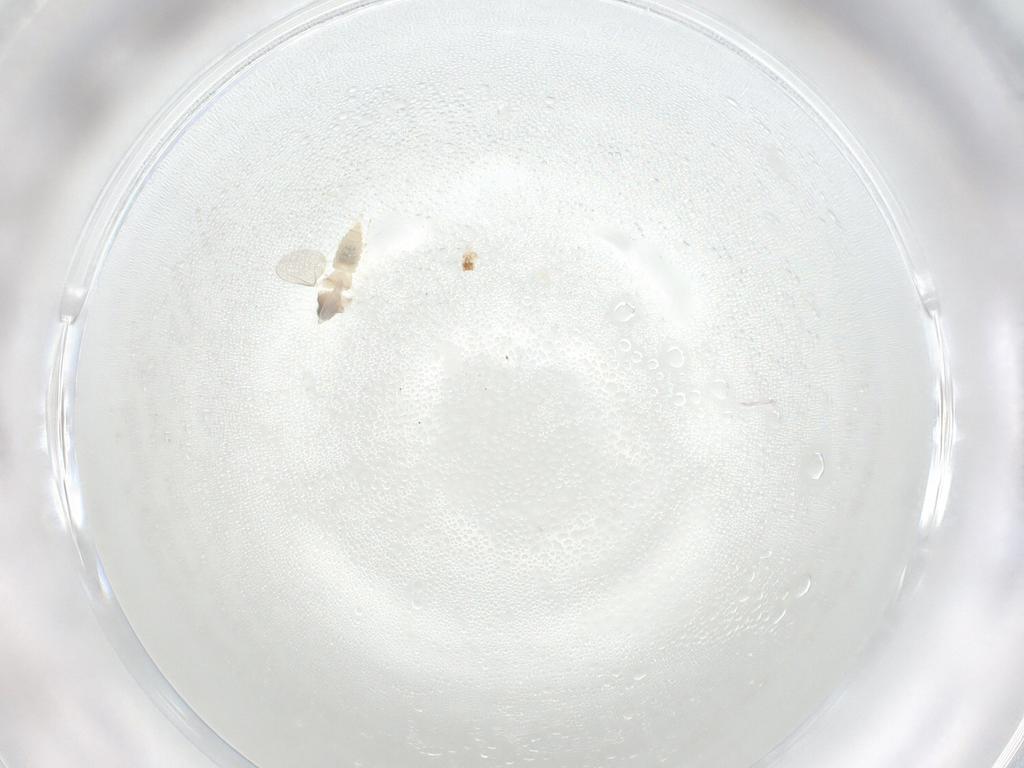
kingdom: Animalia
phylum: Arthropoda
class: Insecta
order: Orthoptera
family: Mogoplistidae
